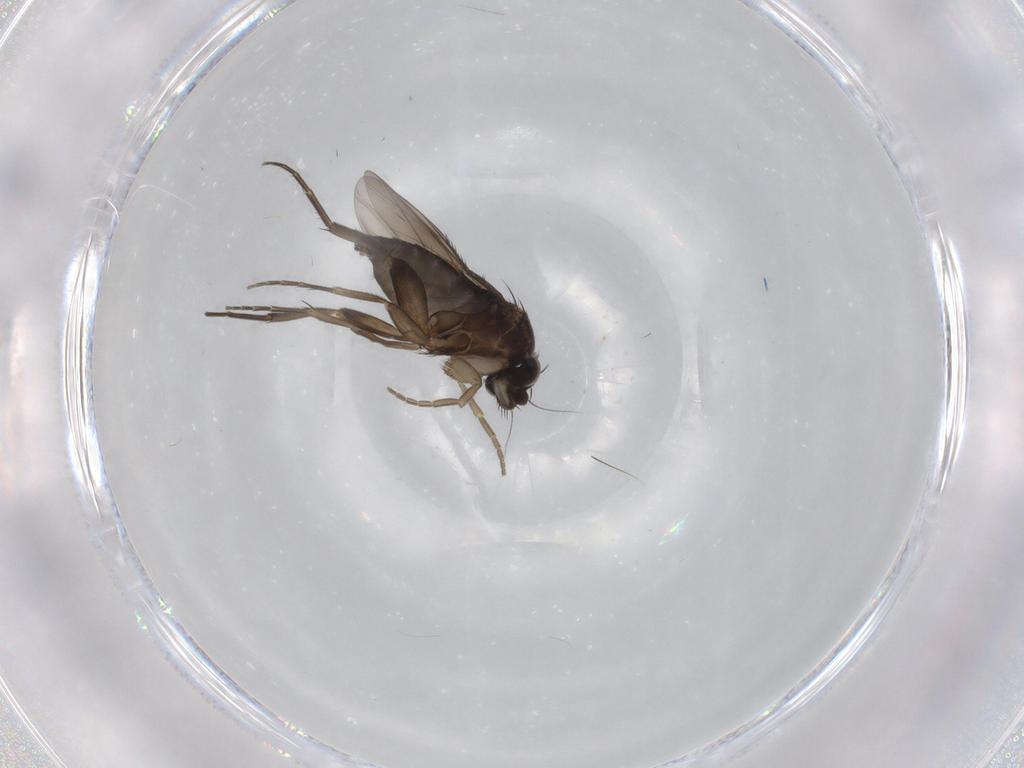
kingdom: Animalia
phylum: Arthropoda
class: Insecta
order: Diptera
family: Phoridae
